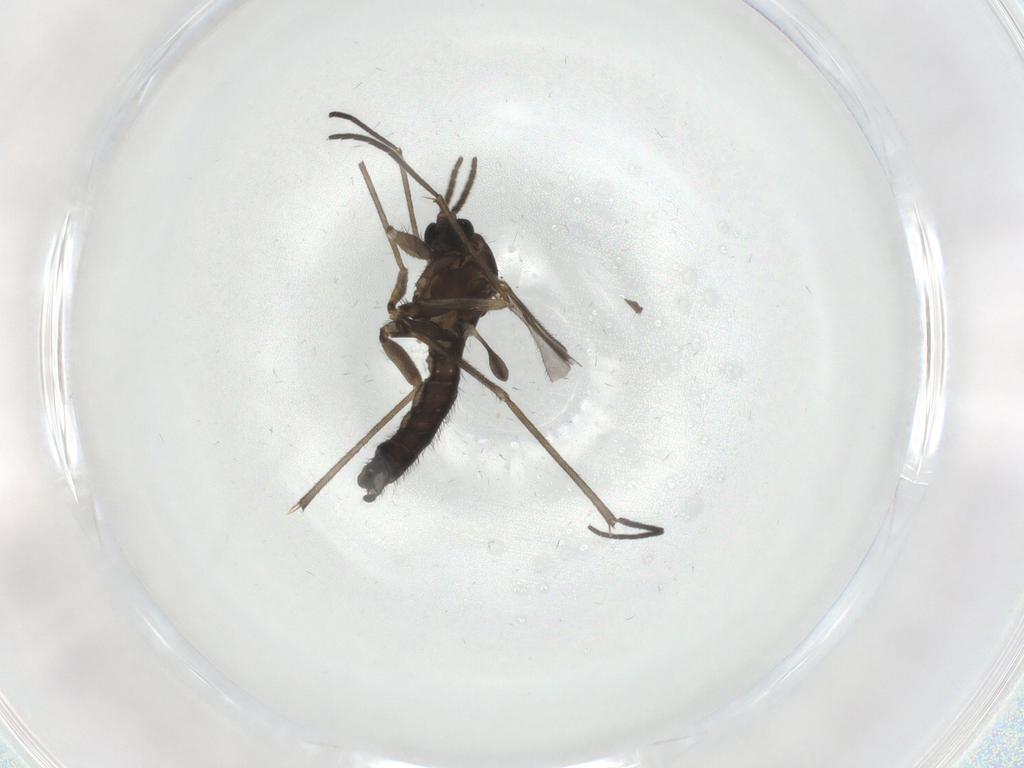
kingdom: Animalia
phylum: Arthropoda
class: Insecta
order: Diptera
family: Sciaridae
